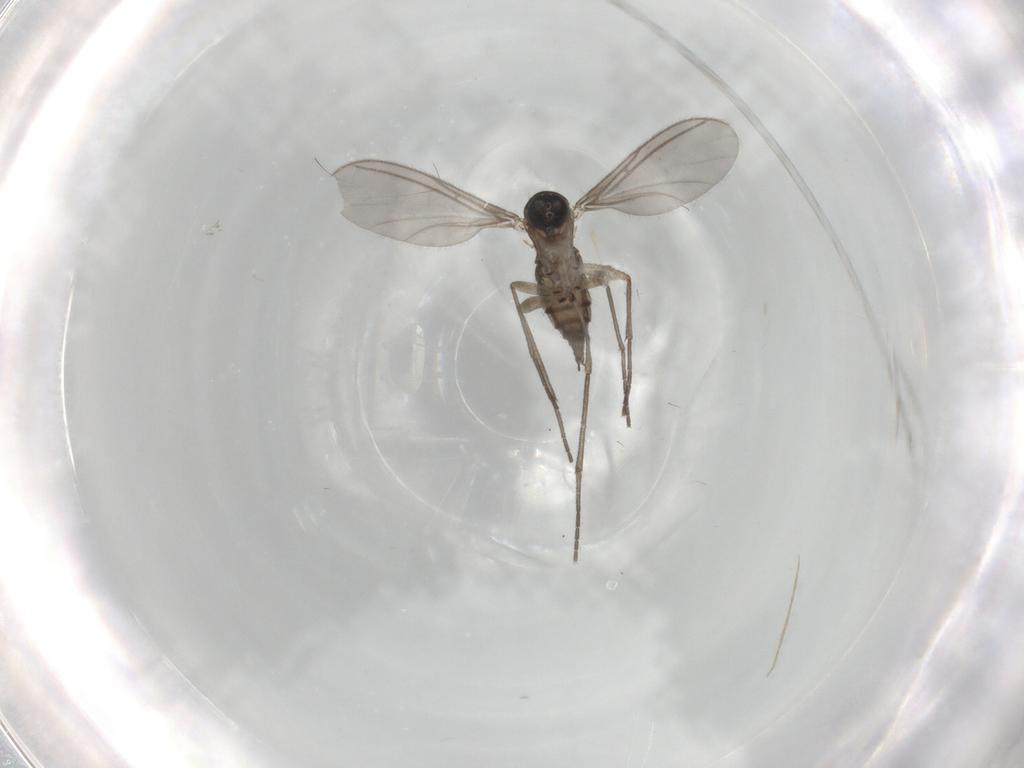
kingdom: Animalia
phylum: Arthropoda
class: Insecta
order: Diptera
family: Sciaridae
